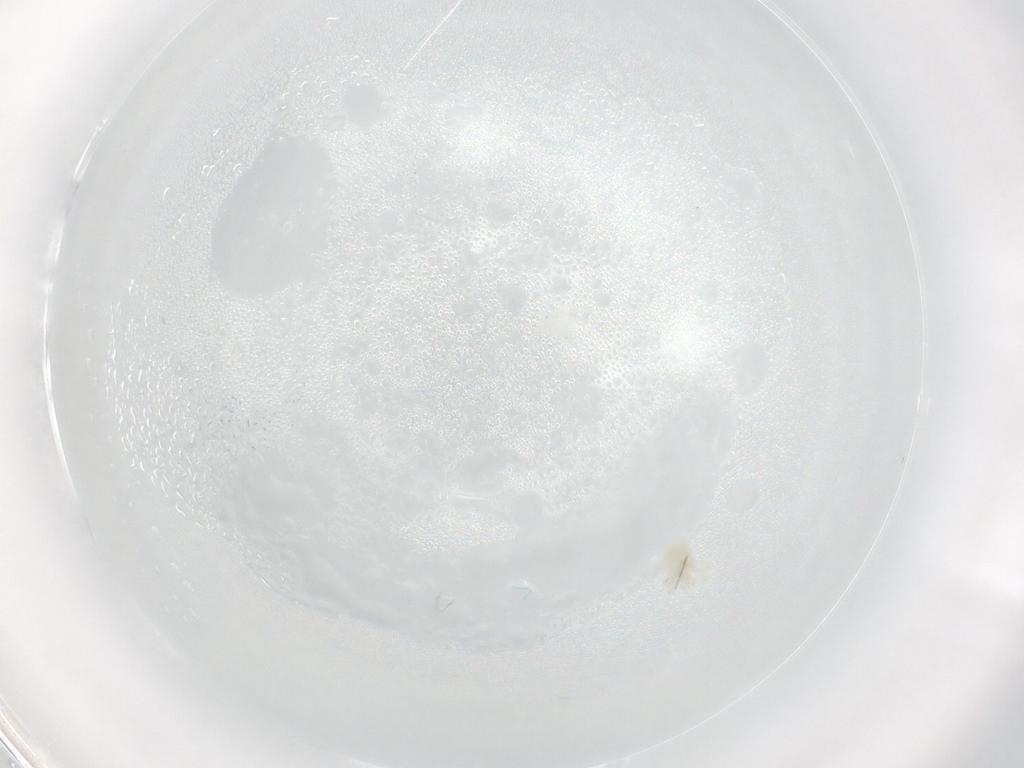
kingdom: Animalia
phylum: Arthropoda
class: Arachnida
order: Trombidiformes
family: Anystidae
